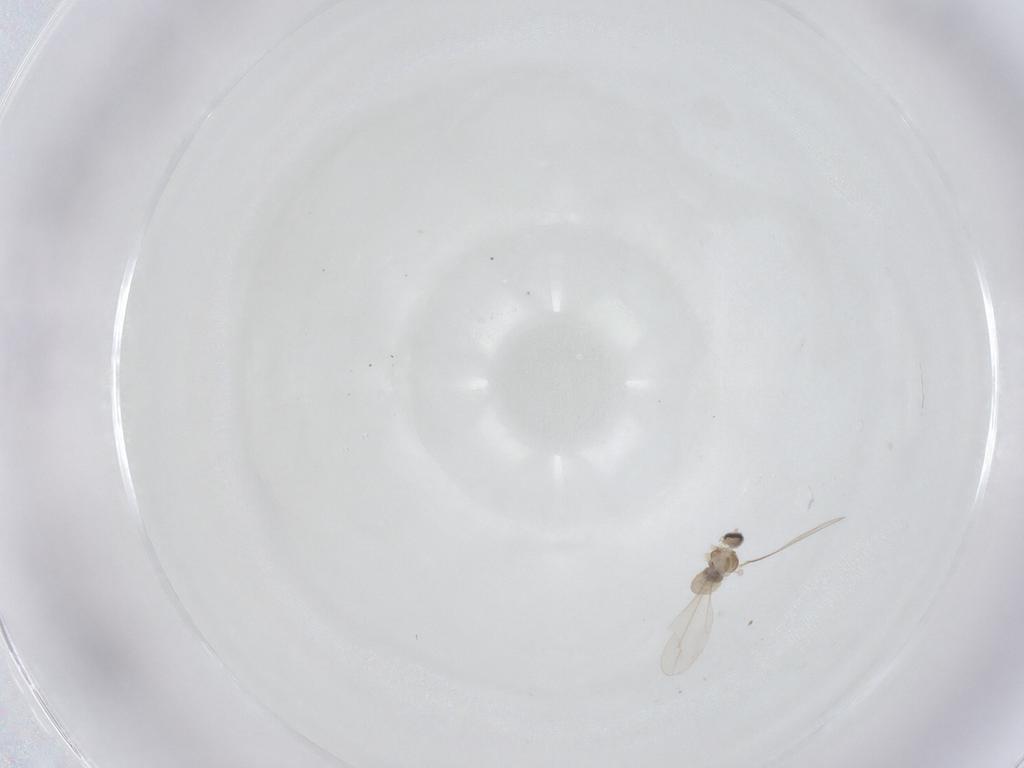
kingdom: Animalia
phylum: Arthropoda
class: Insecta
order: Diptera
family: Cecidomyiidae
